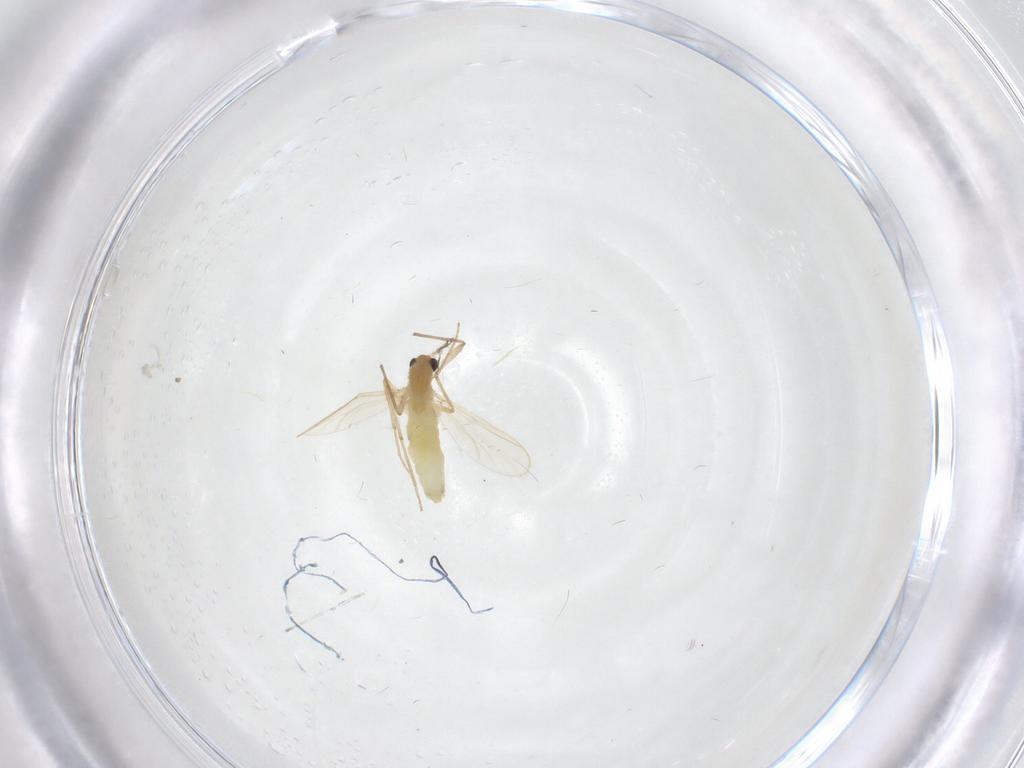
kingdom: Animalia
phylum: Arthropoda
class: Insecta
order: Diptera
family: Chironomidae
